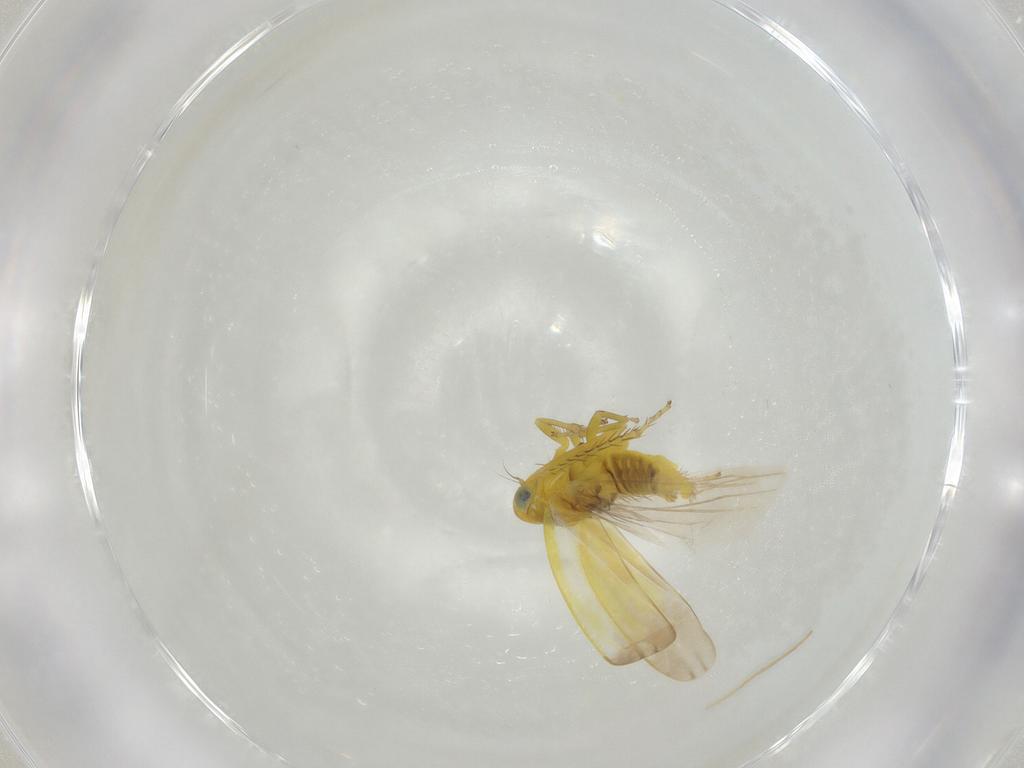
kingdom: Animalia
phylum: Arthropoda
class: Insecta
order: Hemiptera
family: Cicadellidae
